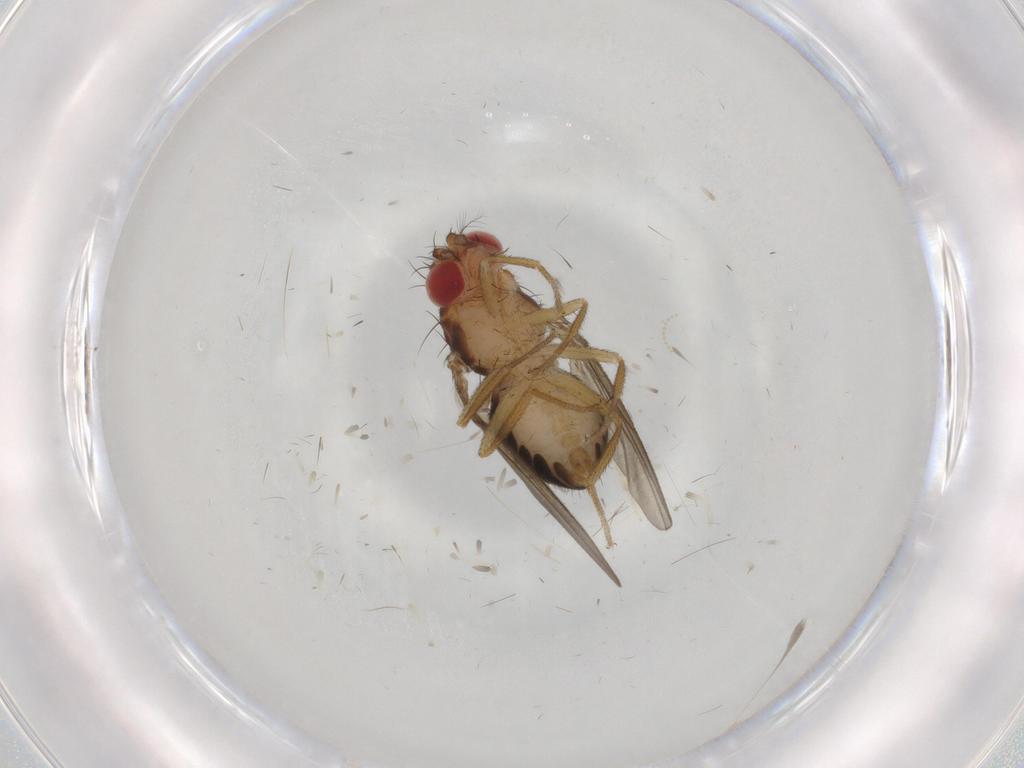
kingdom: Animalia
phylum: Arthropoda
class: Insecta
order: Diptera
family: Drosophilidae
